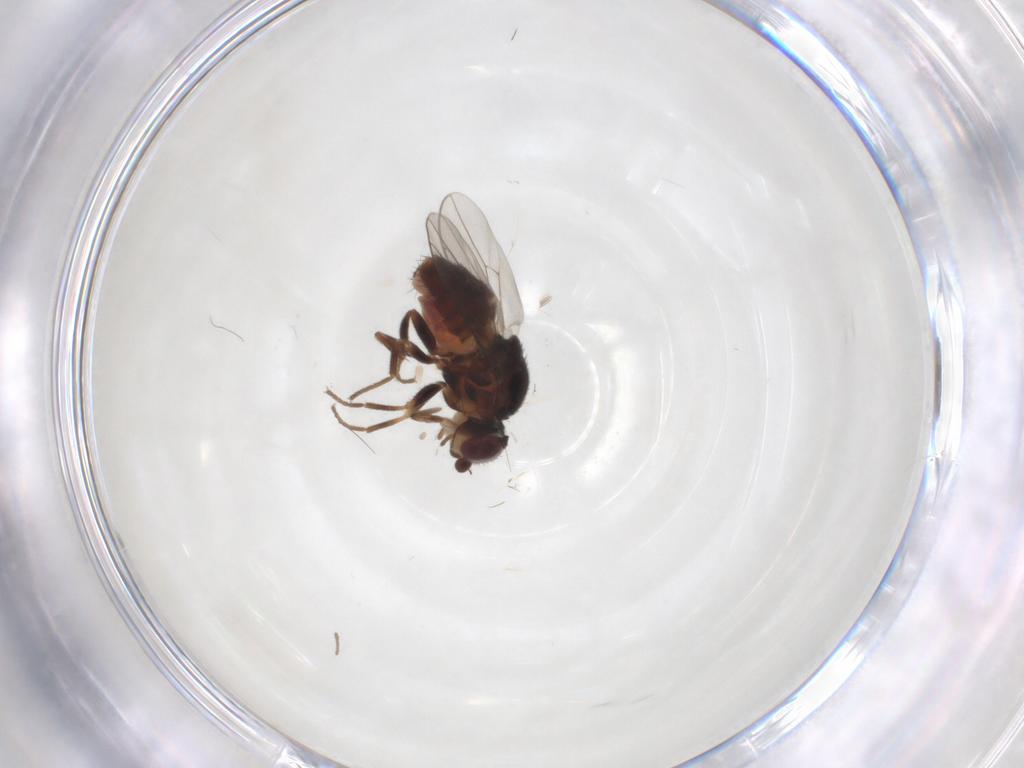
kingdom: Animalia
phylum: Arthropoda
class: Insecta
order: Diptera
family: Chloropidae
